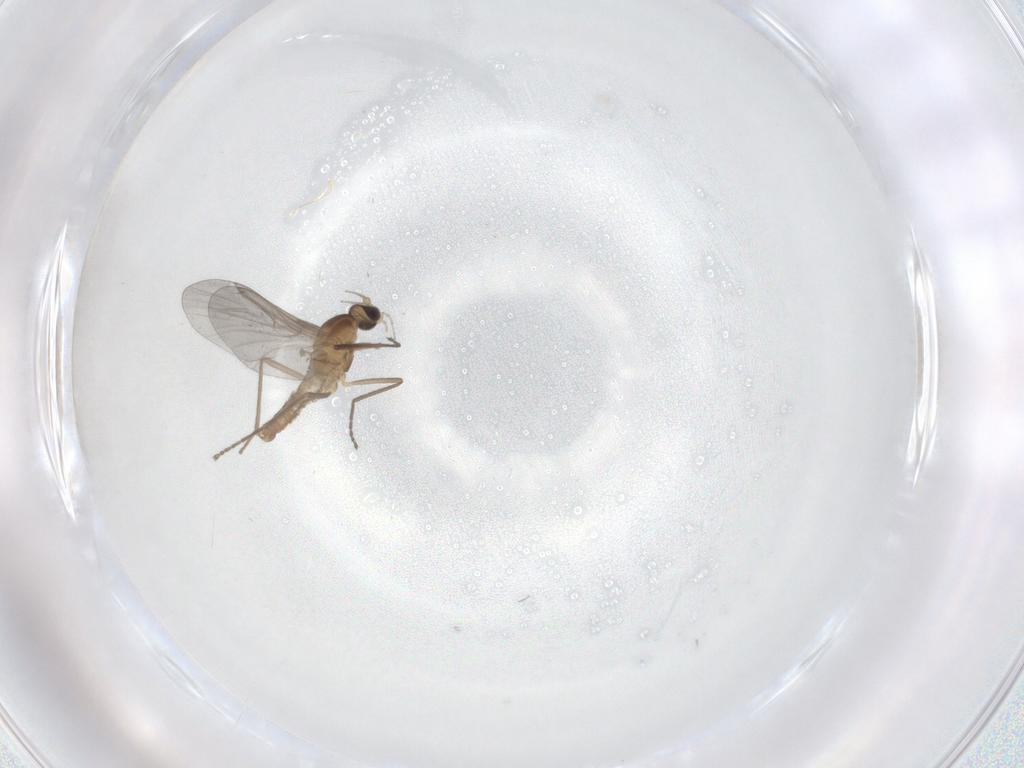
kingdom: Animalia
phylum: Arthropoda
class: Insecta
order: Diptera
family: Cecidomyiidae
